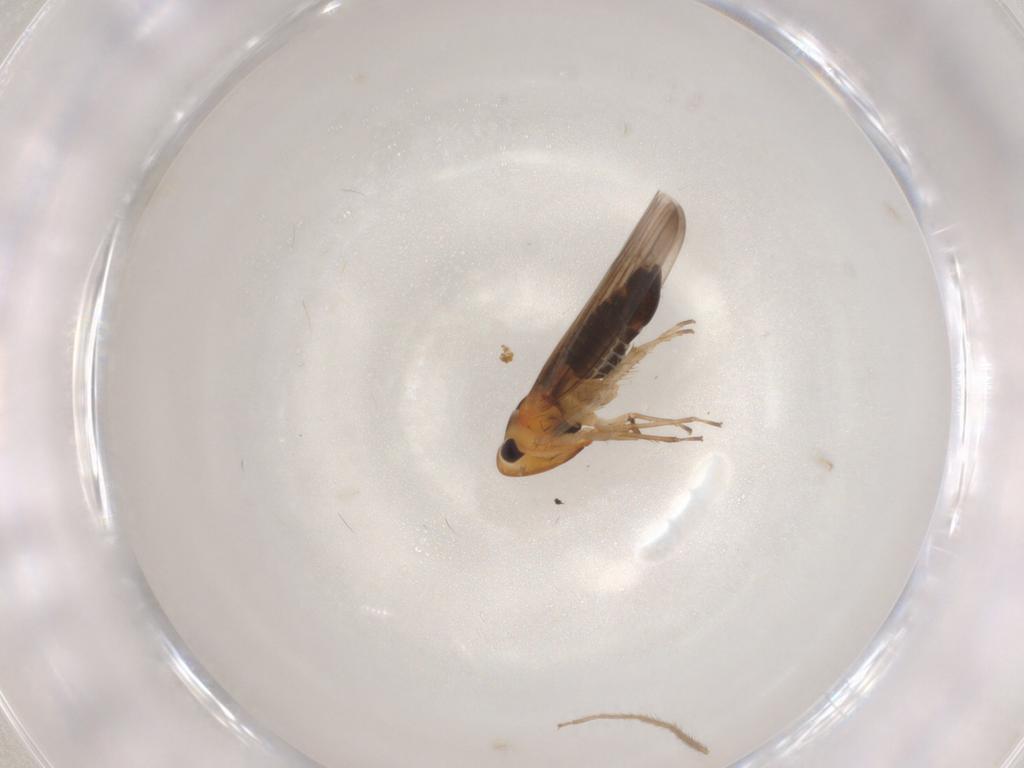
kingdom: Animalia
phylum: Arthropoda
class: Insecta
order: Hemiptera
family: Cicadellidae
